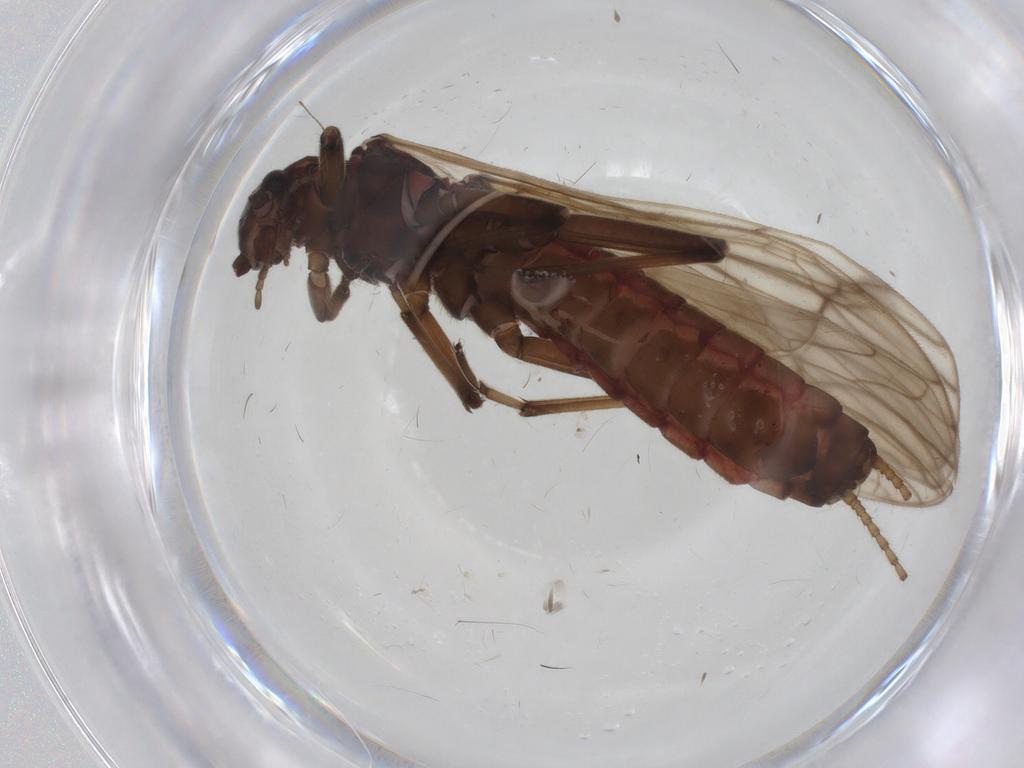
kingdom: Animalia
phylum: Arthropoda
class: Insecta
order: Plecoptera
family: Capniidae
